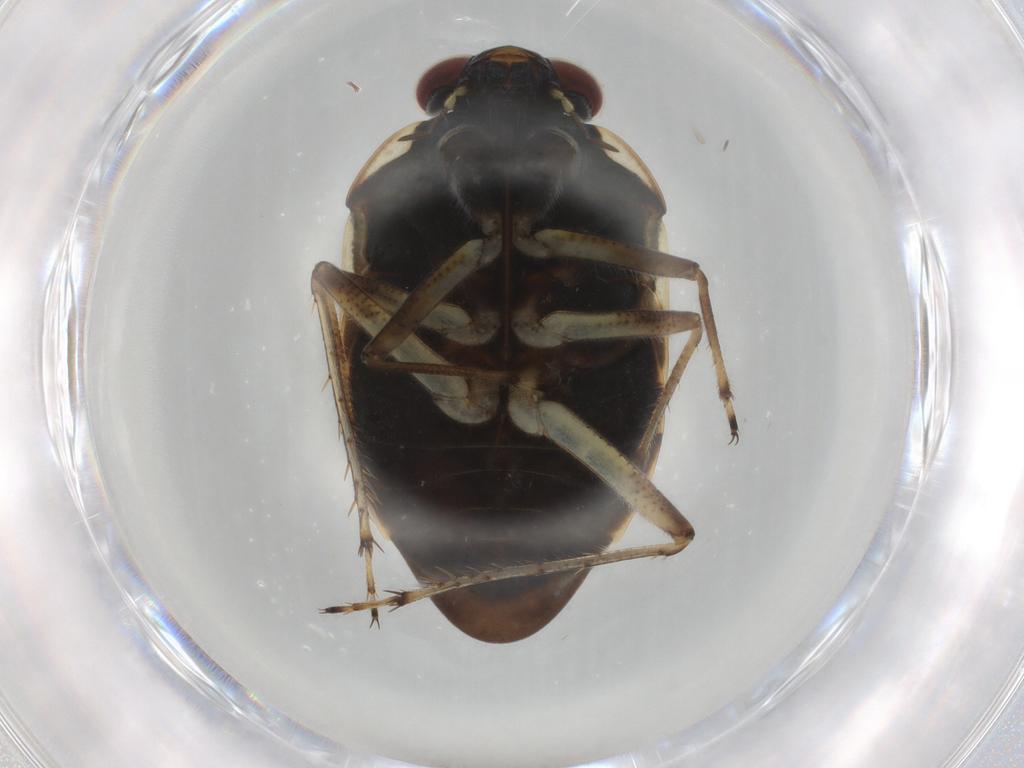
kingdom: Animalia
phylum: Arthropoda
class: Insecta
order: Hemiptera
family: Ochteridae
